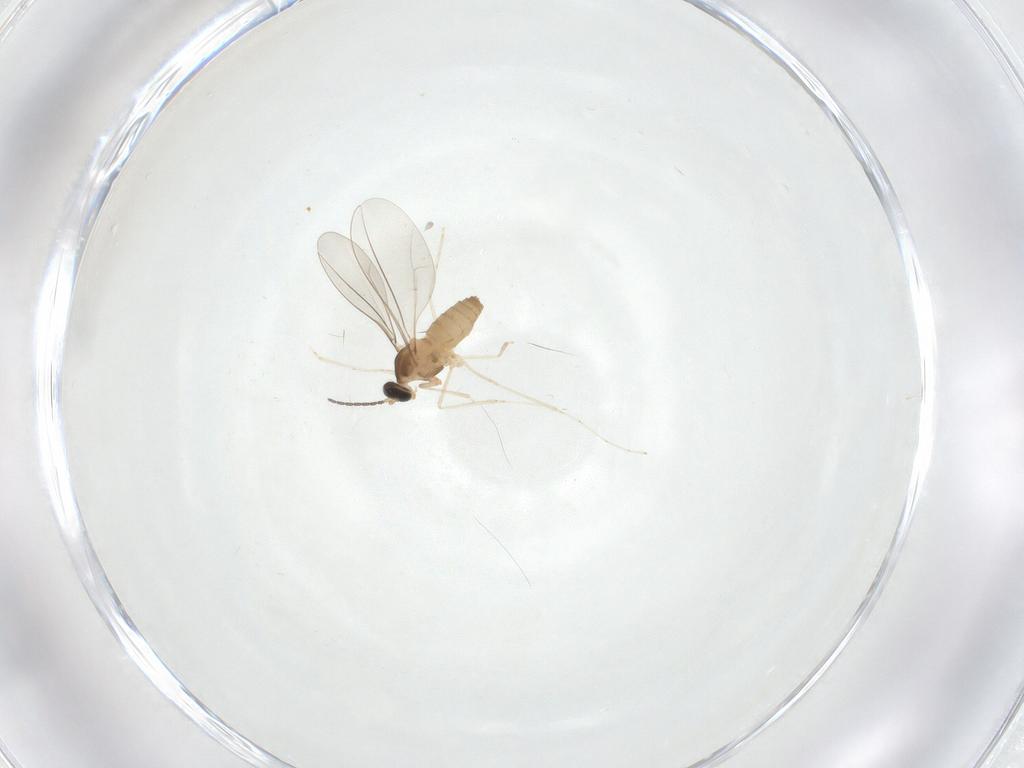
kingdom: Animalia
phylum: Arthropoda
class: Insecta
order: Diptera
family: Cecidomyiidae
